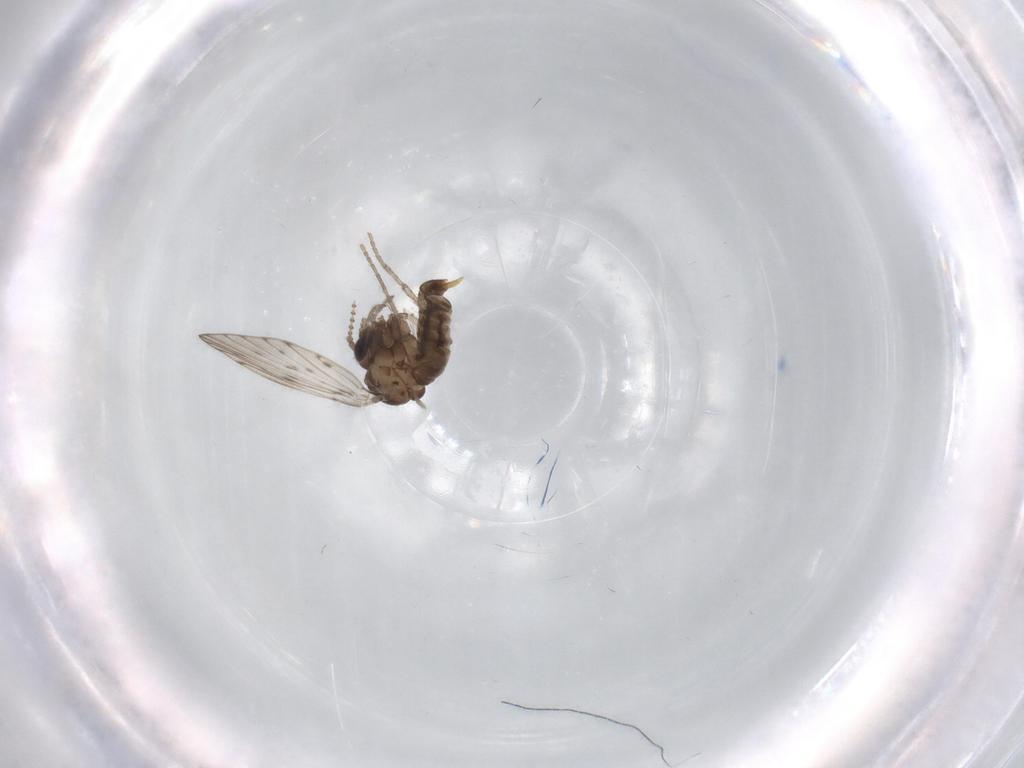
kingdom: Animalia
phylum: Arthropoda
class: Insecta
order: Diptera
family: Psychodidae
